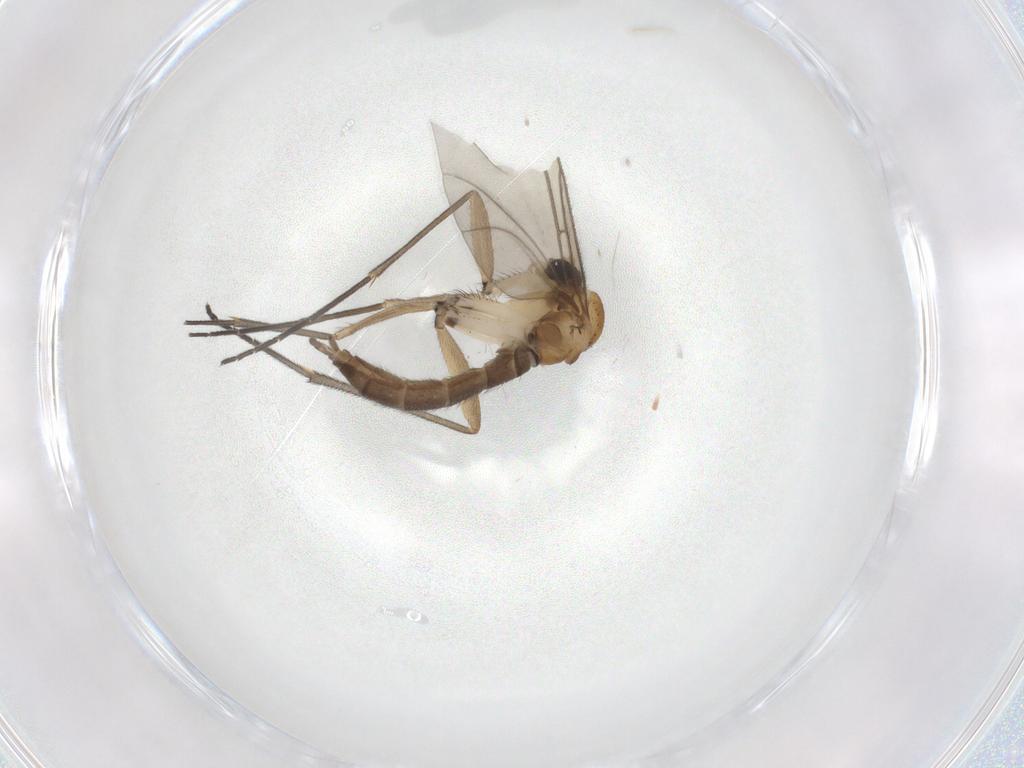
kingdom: Animalia
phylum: Arthropoda
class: Insecta
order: Diptera
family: Sciaridae
